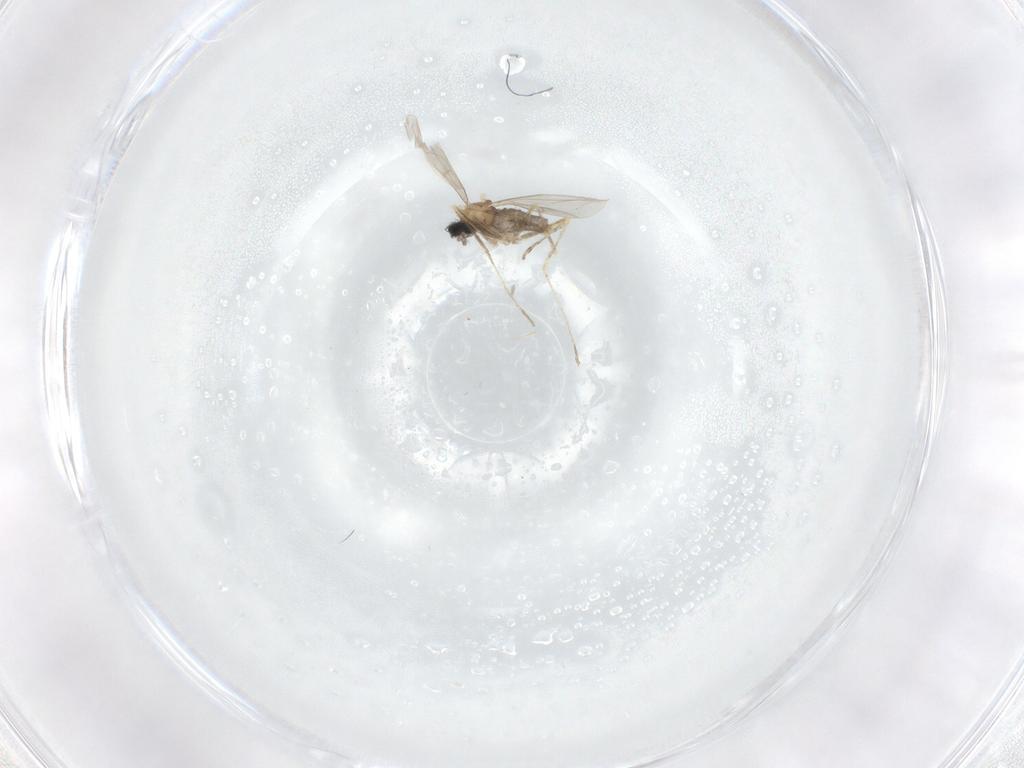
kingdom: Animalia
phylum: Arthropoda
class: Insecta
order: Diptera
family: Cecidomyiidae
